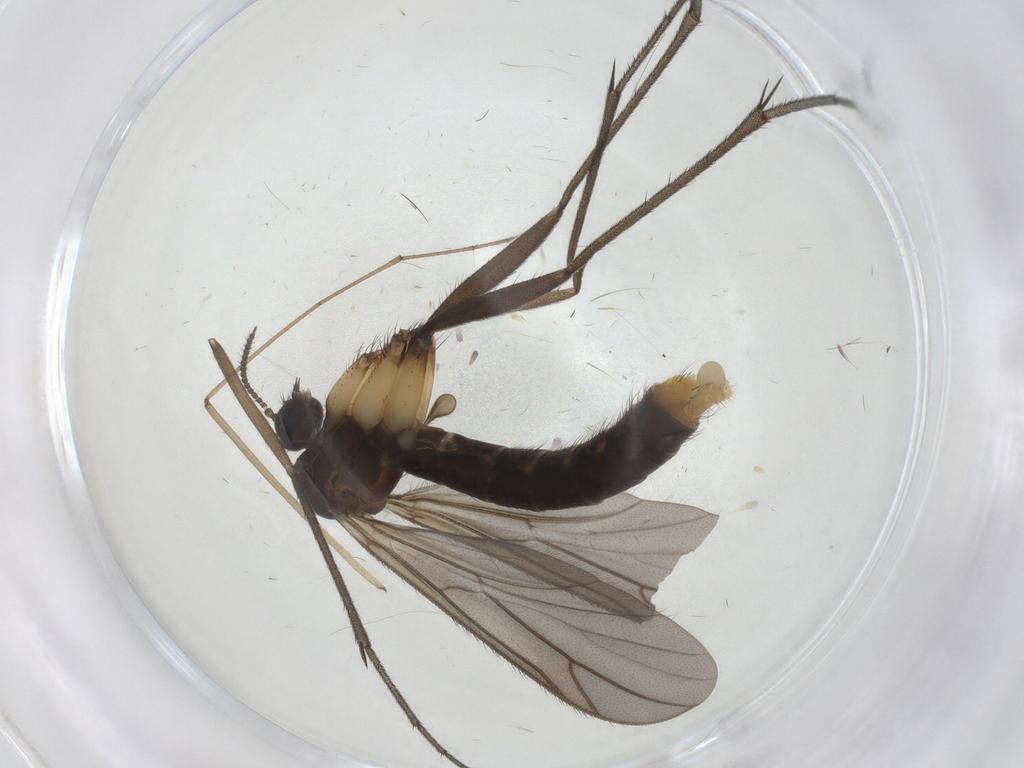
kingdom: Animalia
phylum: Arthropoda
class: Insecta
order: Diptera
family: Ditomyiidae
